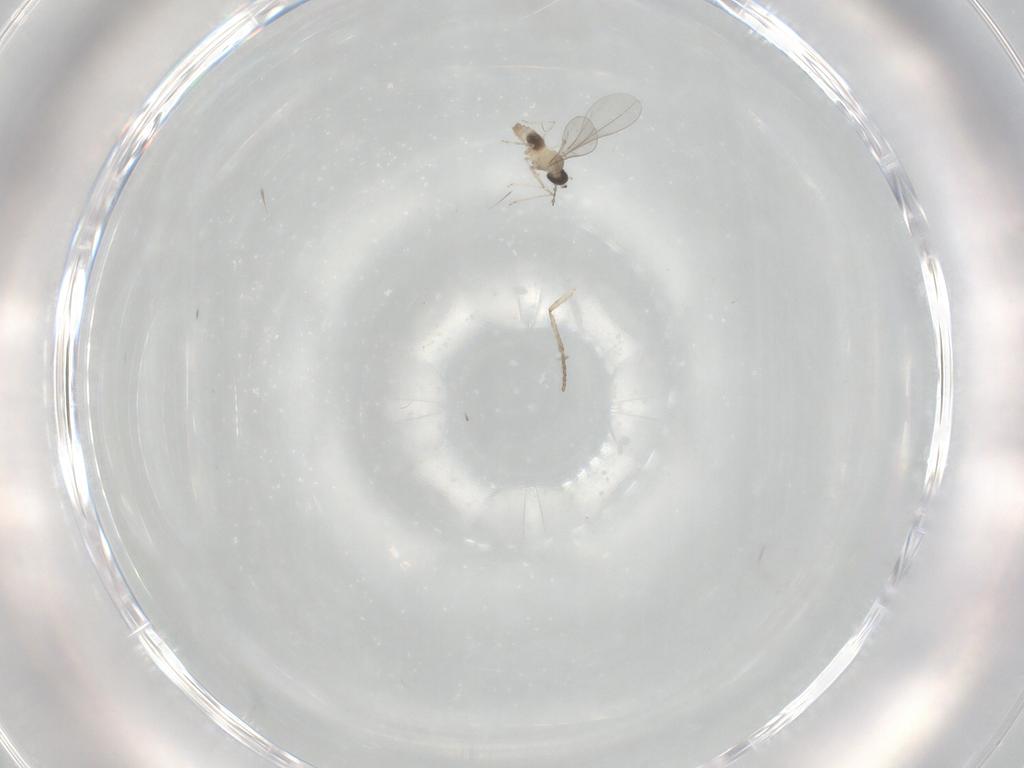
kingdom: Animalia
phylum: Arthropoda
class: Insecta
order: Diptera
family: Cecidomyiidae
